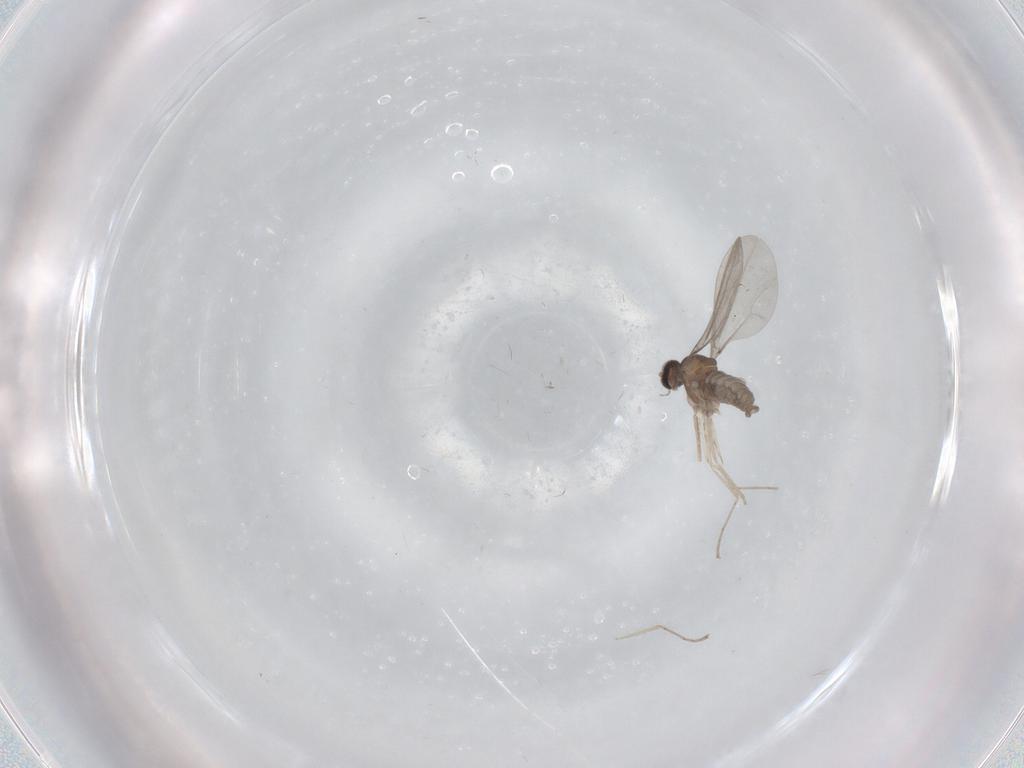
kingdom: Animalia
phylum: Arthropoda
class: Insecta
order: Diptera
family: Cecidomyiidae
